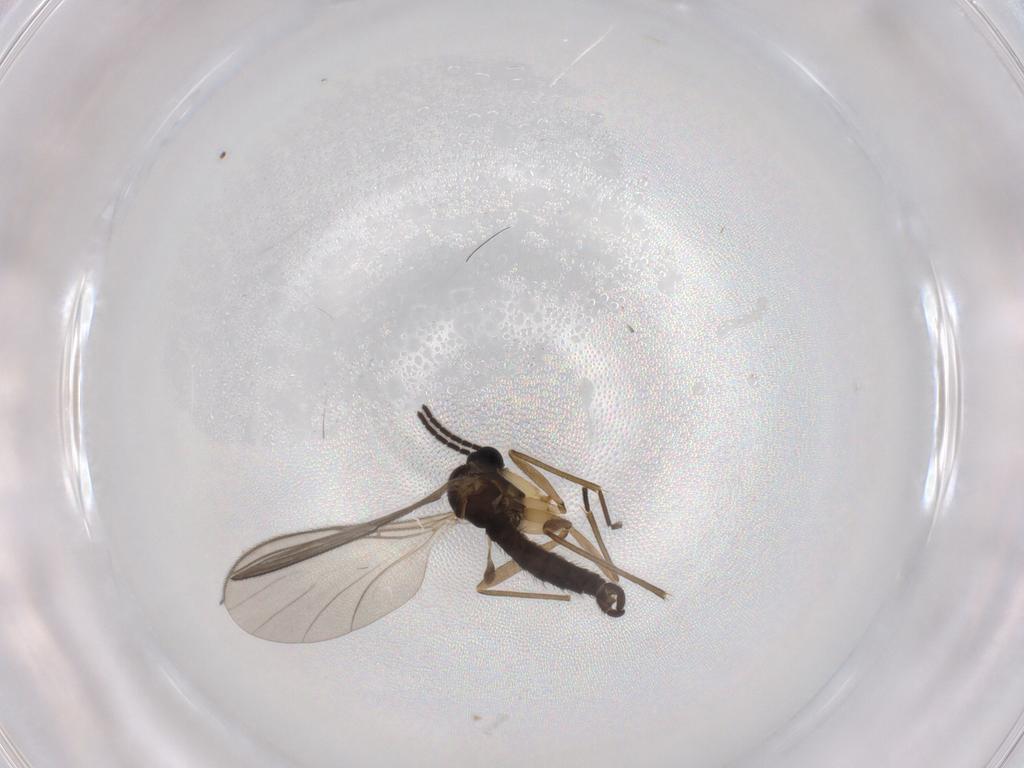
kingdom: Animalia
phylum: Arthropoda
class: Insecta
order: Diptera
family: Sciaridae
